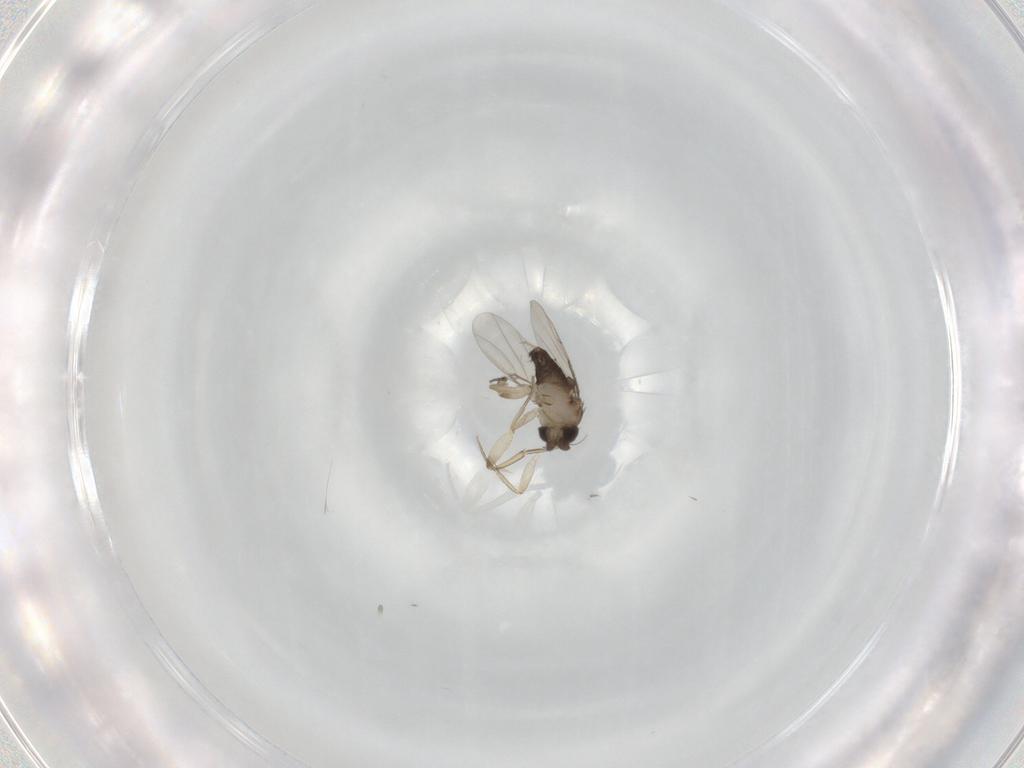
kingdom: Animalia
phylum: Arthropoda
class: Insecta
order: Diptera
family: Phoridae
